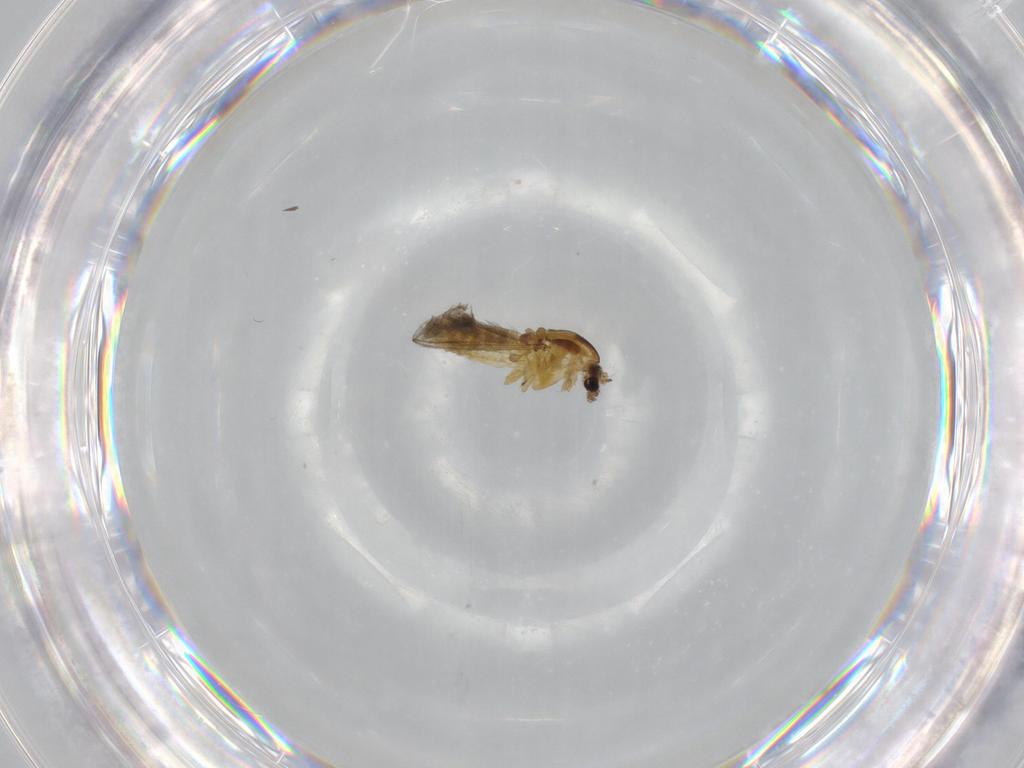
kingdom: Animalia
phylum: Arthropoda
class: Insecta
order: Diptera
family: Chironomidae
